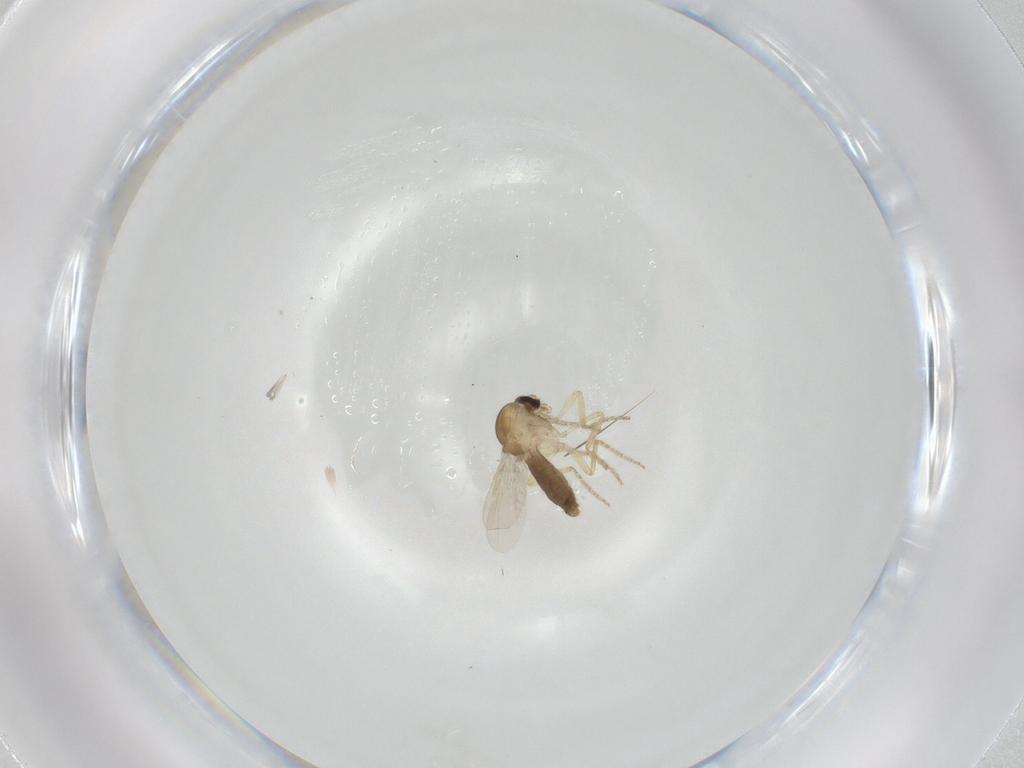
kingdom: Animalia
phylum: Arthropoda
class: Insecta
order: Diptera
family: Ceratopogonidae
